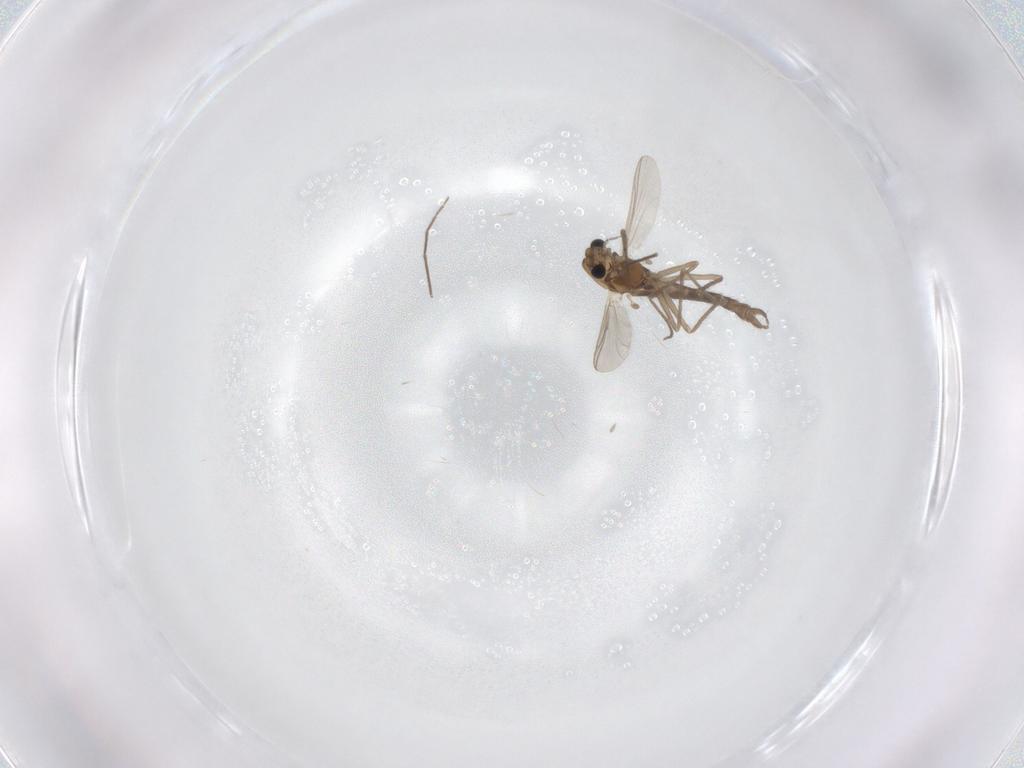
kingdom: Animalia
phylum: Arthropoda
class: Insecta
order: Diptera
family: Chironomidae
